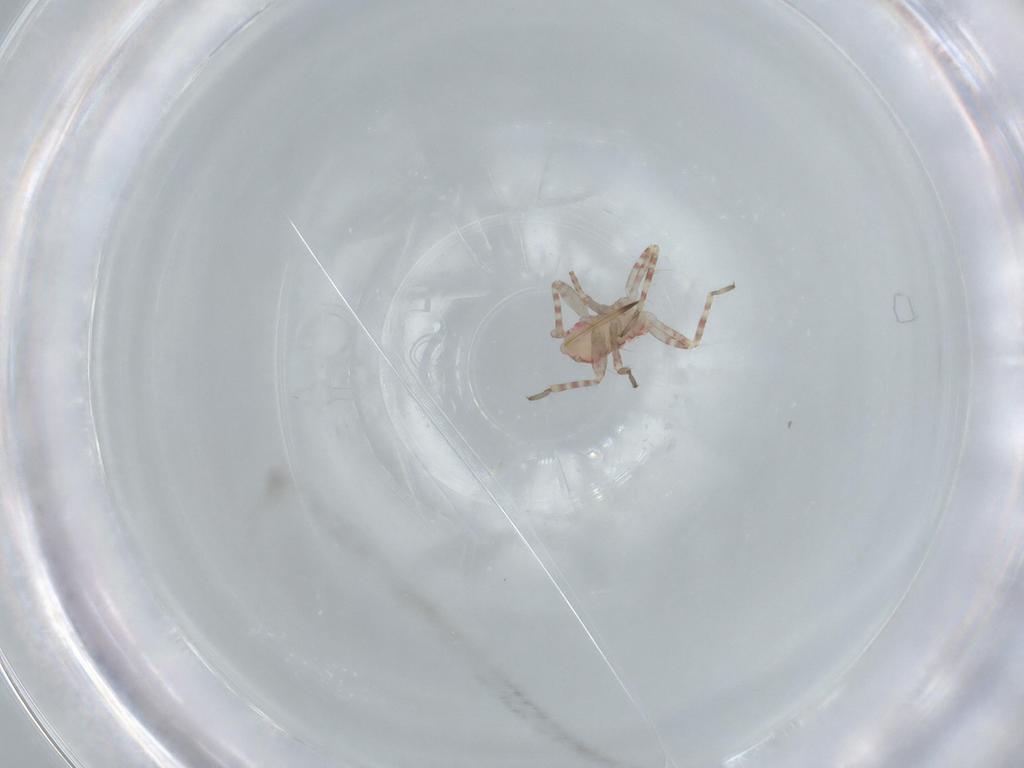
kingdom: Animalia
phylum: Arthropoda
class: Insecta
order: Hemiptera
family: Miridae
